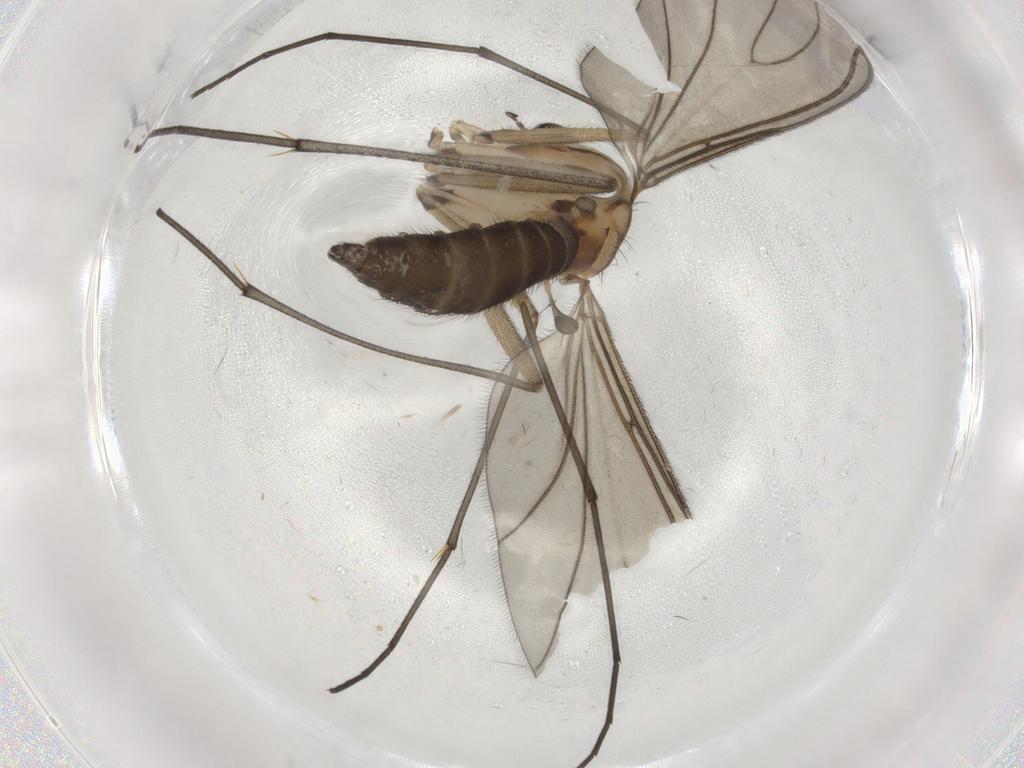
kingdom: Animalia
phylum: Arthropoda
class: Insecta
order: Diptera
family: Sciaridae
